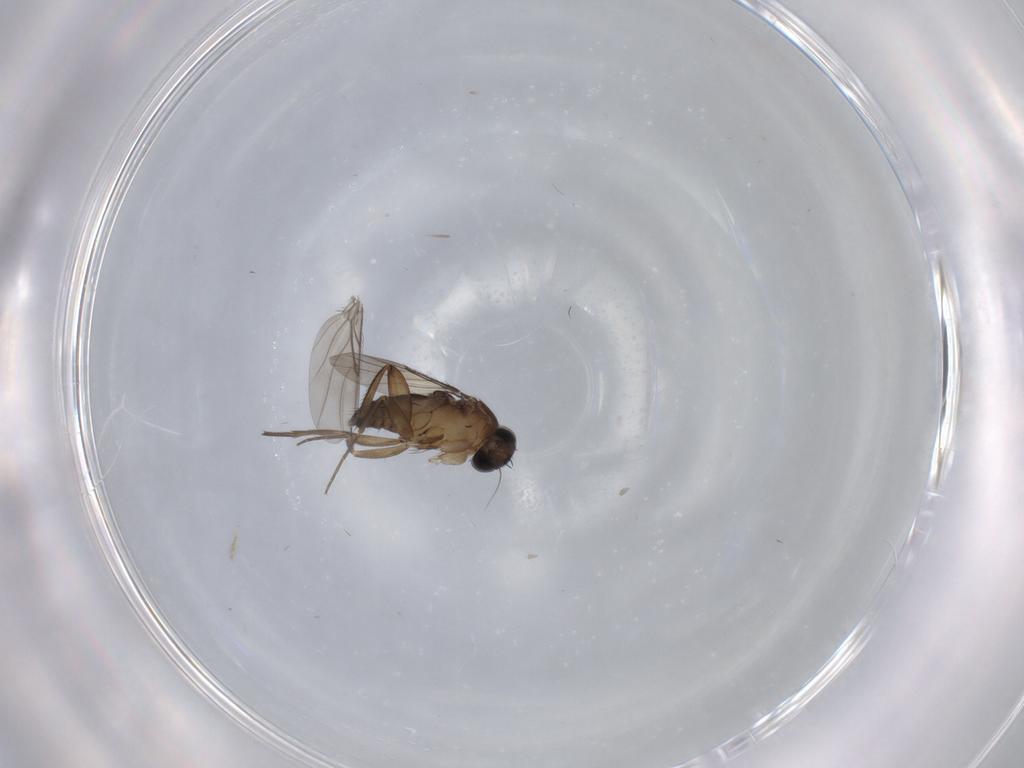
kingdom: Animalia
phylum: Arthropoda
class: Insecta
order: Diptera
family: Phoridae
